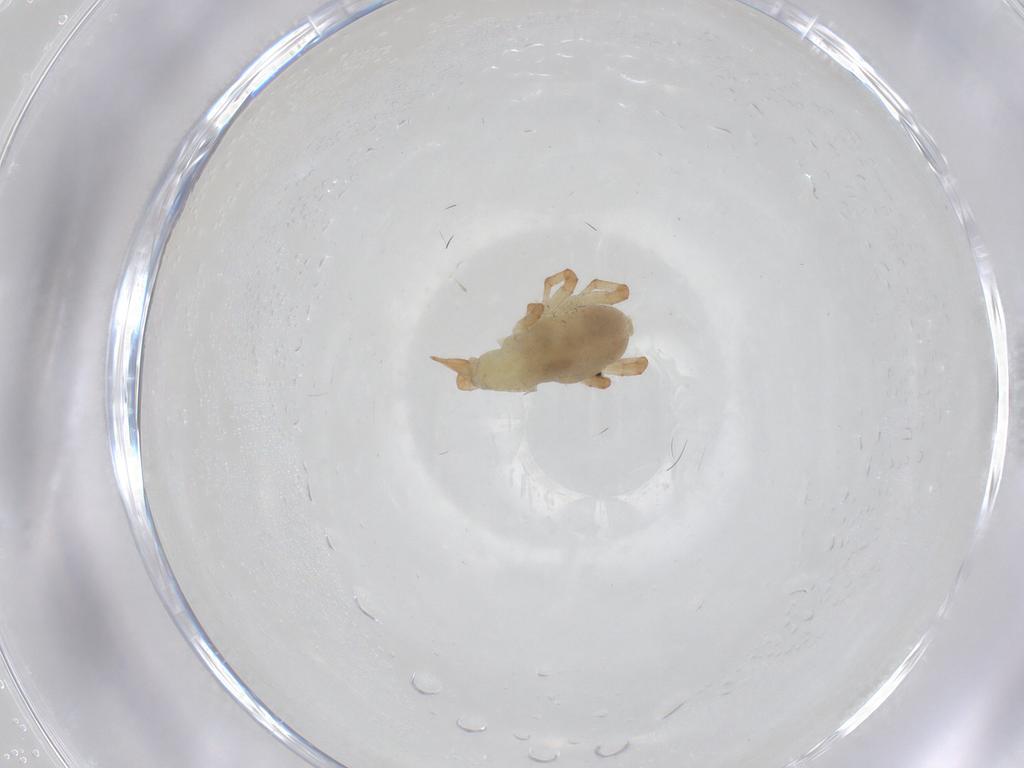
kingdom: Animalia
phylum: Arthropoda
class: Arachnida
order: Trombidiformes
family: Bdellidae
